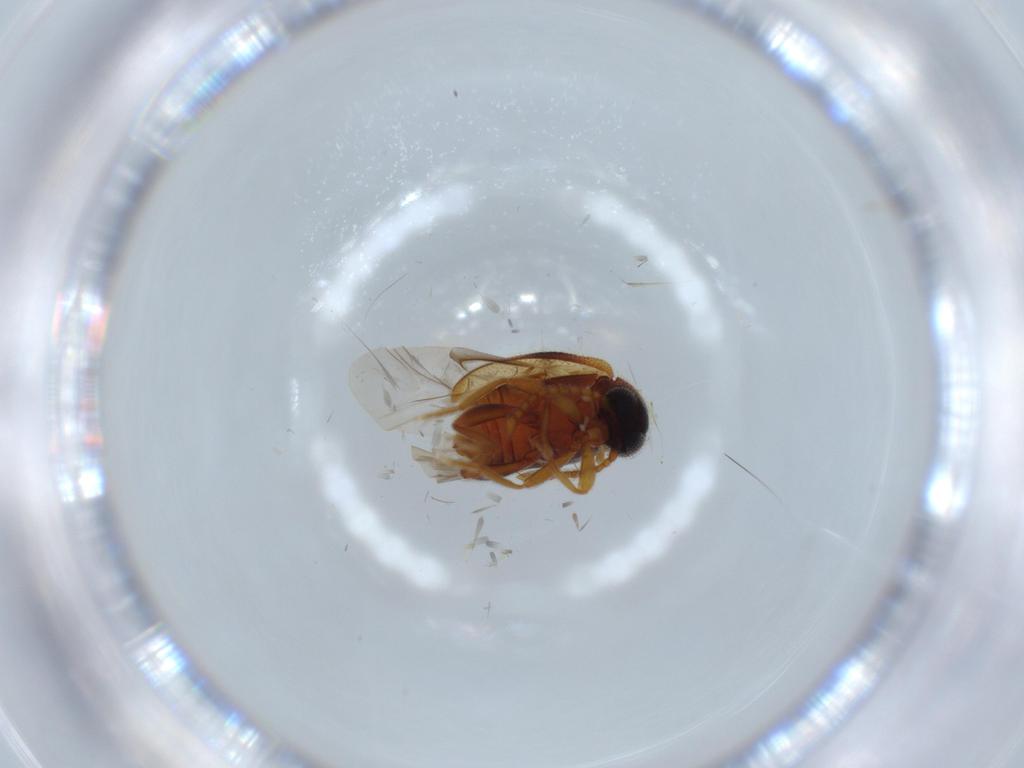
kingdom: Animalia
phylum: Arthropoda
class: Insecta
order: Coleoptera
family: Aderidae
